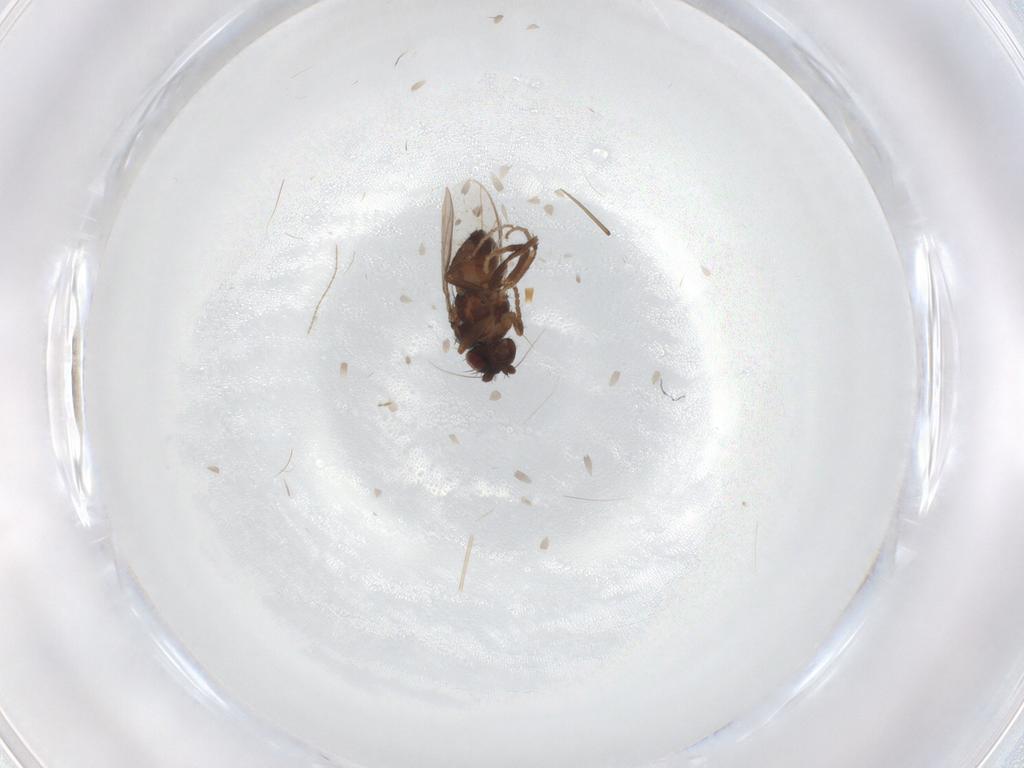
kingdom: Animalia
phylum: Arthropoda
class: Insecta
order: Diptera
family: Sphaeroceridae
